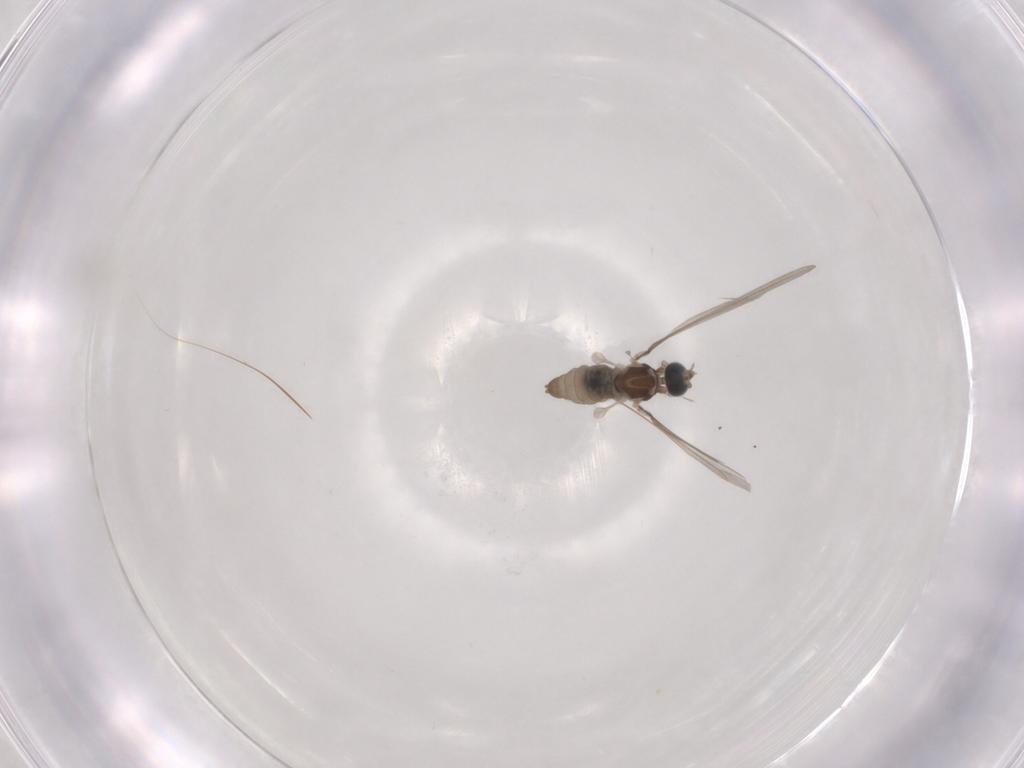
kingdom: Animalia
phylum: Arthropoda
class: Insecta
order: Diptera
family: Cecidomyiidae
